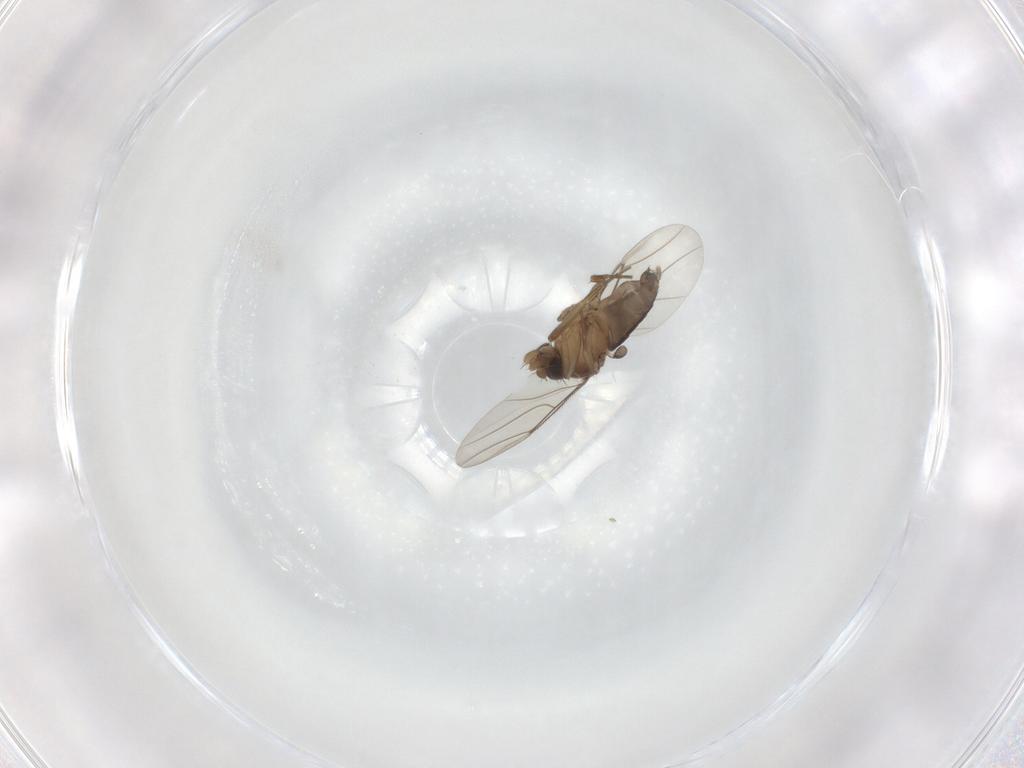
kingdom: Animalia
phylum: Arthropoda
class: Insecta
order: Diptera
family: Phoridae
